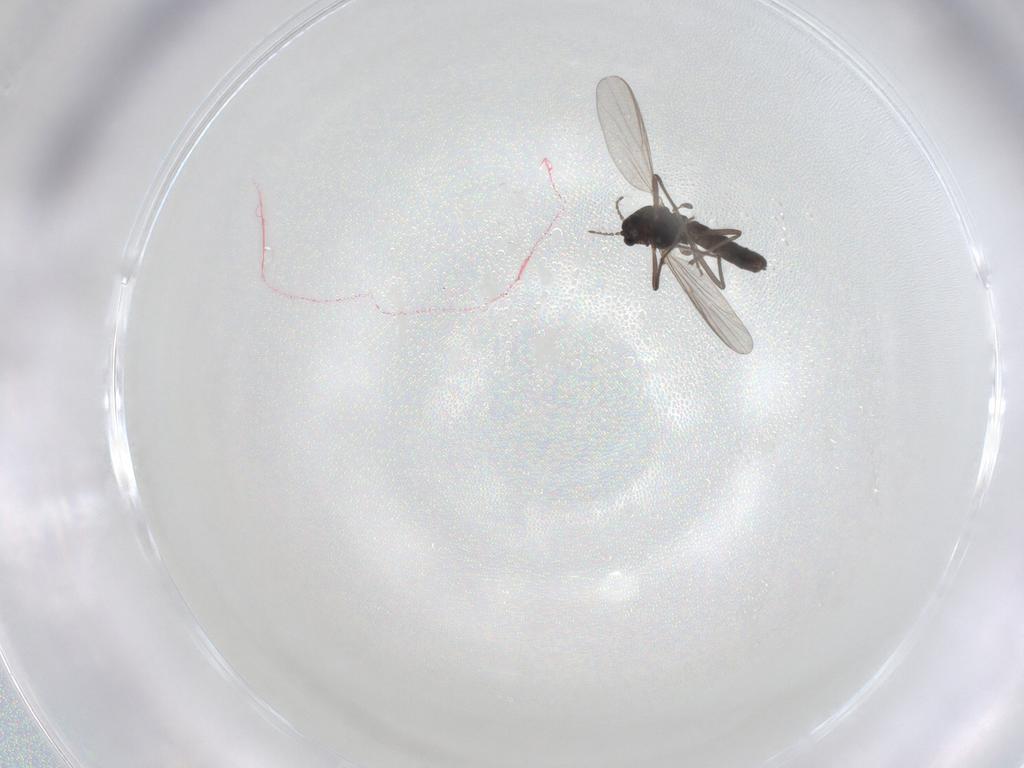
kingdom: Animalia
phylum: Arthropoda
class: Insecta
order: Diptera
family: Chironomidae
